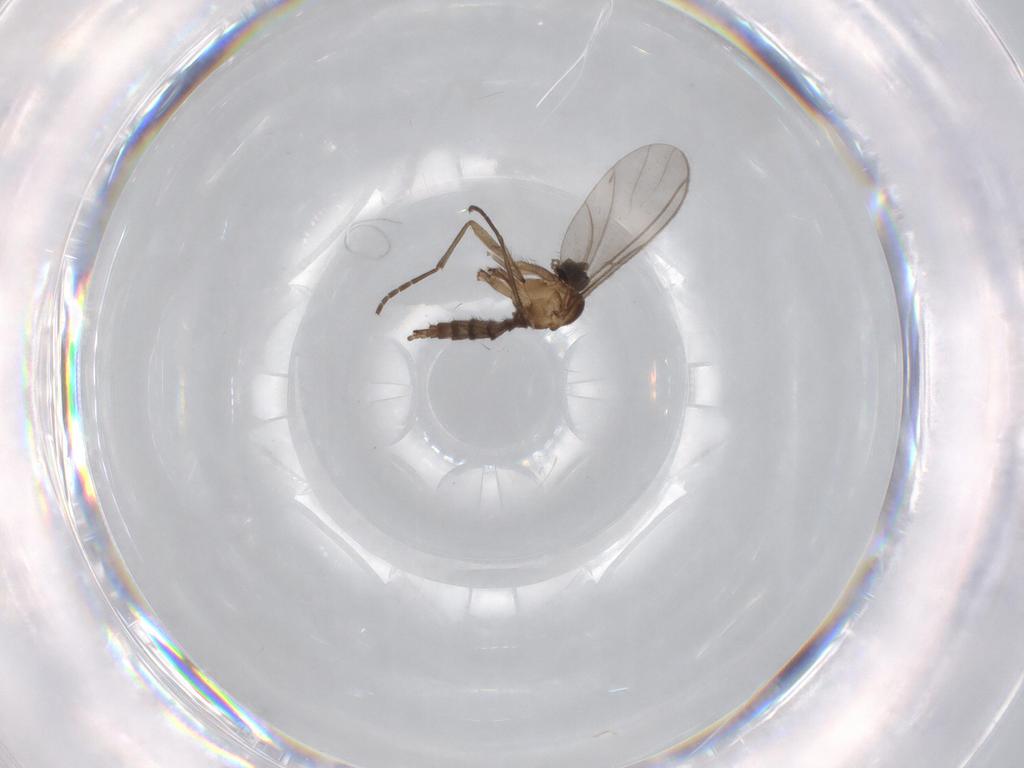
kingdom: Animalia
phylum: Arthropoda
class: Insecta
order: Diptera
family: Sciaridae
